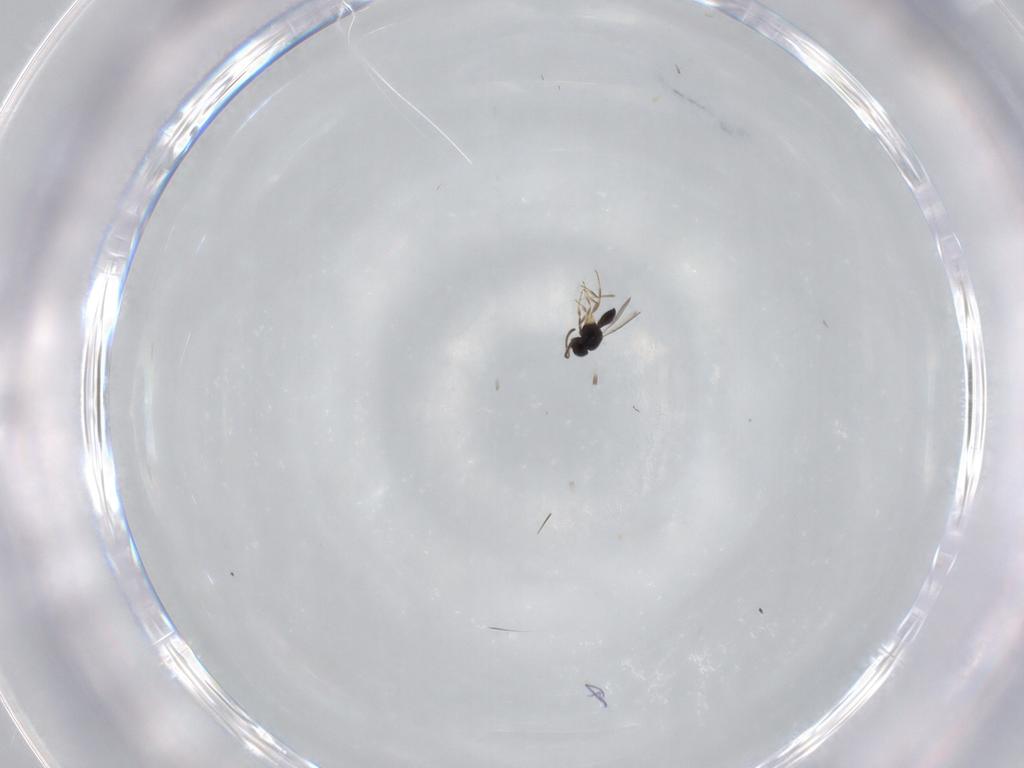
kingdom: Animalia
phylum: Arthropoda
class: Insecta
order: Hymenoptera
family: Scelionidae
